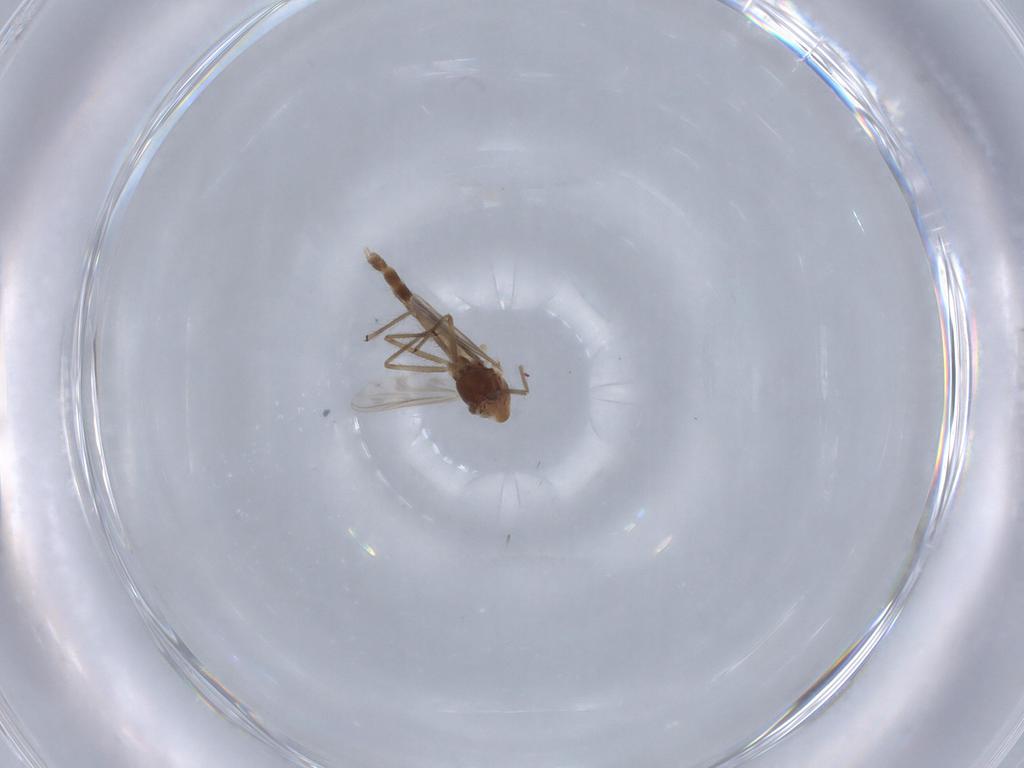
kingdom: Animalia
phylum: Arthropoda
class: Insecta
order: Diptera
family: Chironomidae
